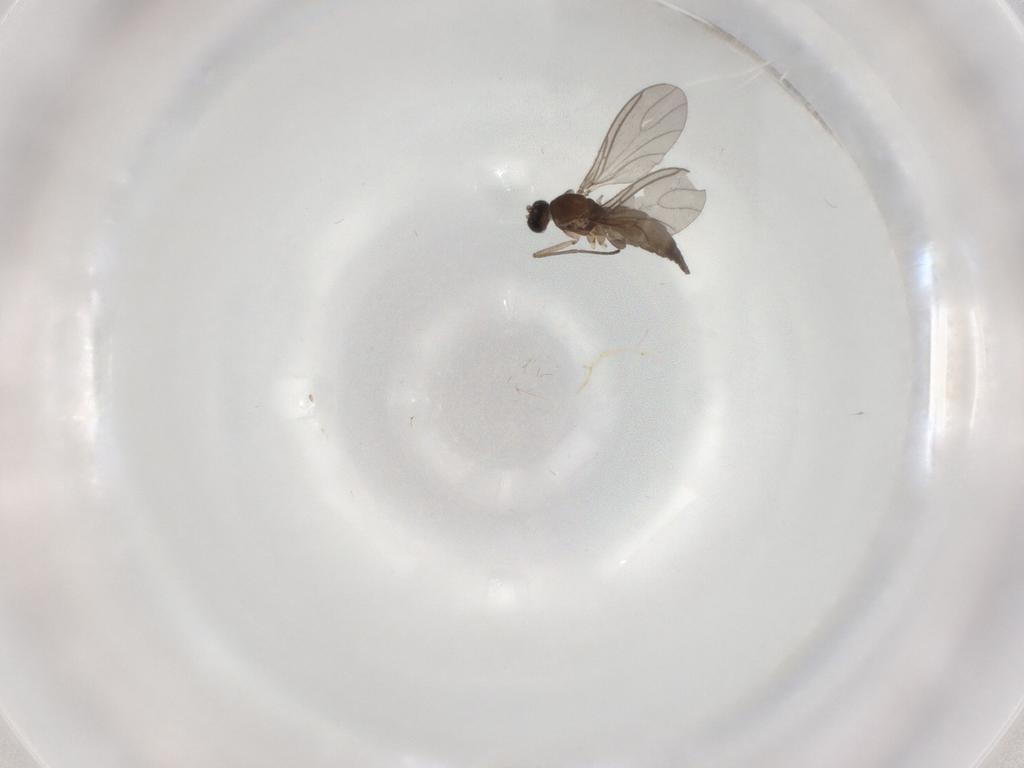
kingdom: Animalia
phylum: Arthropoda
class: Insecta
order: Diptera
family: Sciaridae
